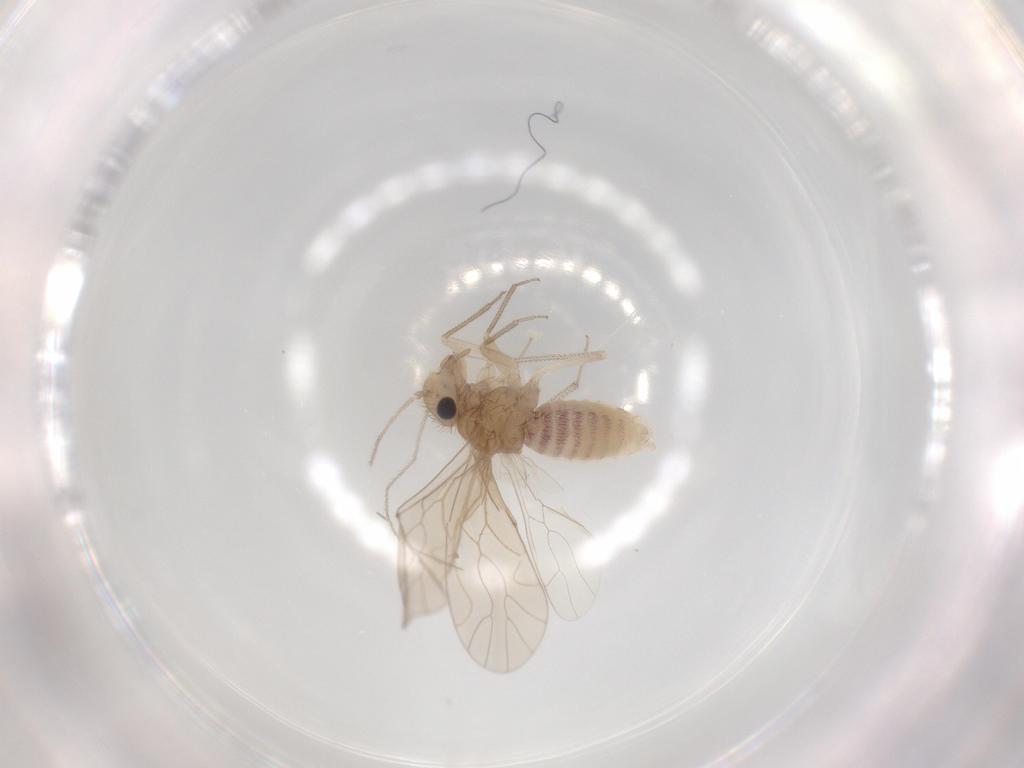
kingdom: Animalia
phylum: Arthropoda
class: Insecta
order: Psocodea
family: Caeciliusidae
